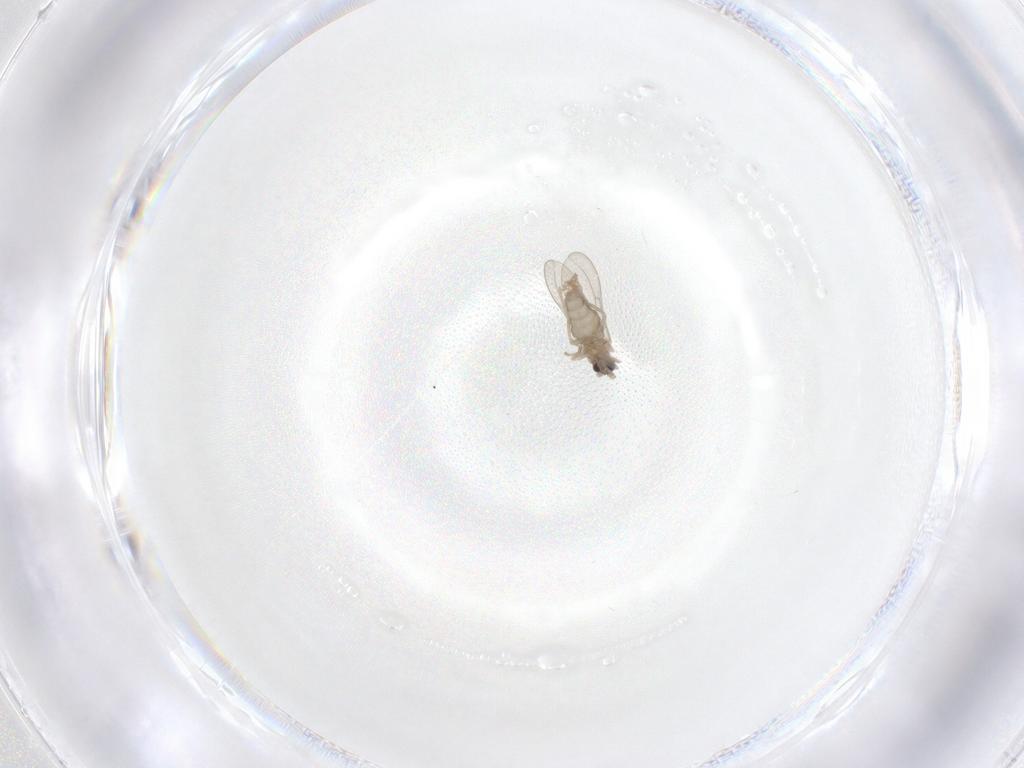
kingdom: Animalia
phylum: Arthropoda
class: Insecta
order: Diptera
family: Cecidomyiidae
